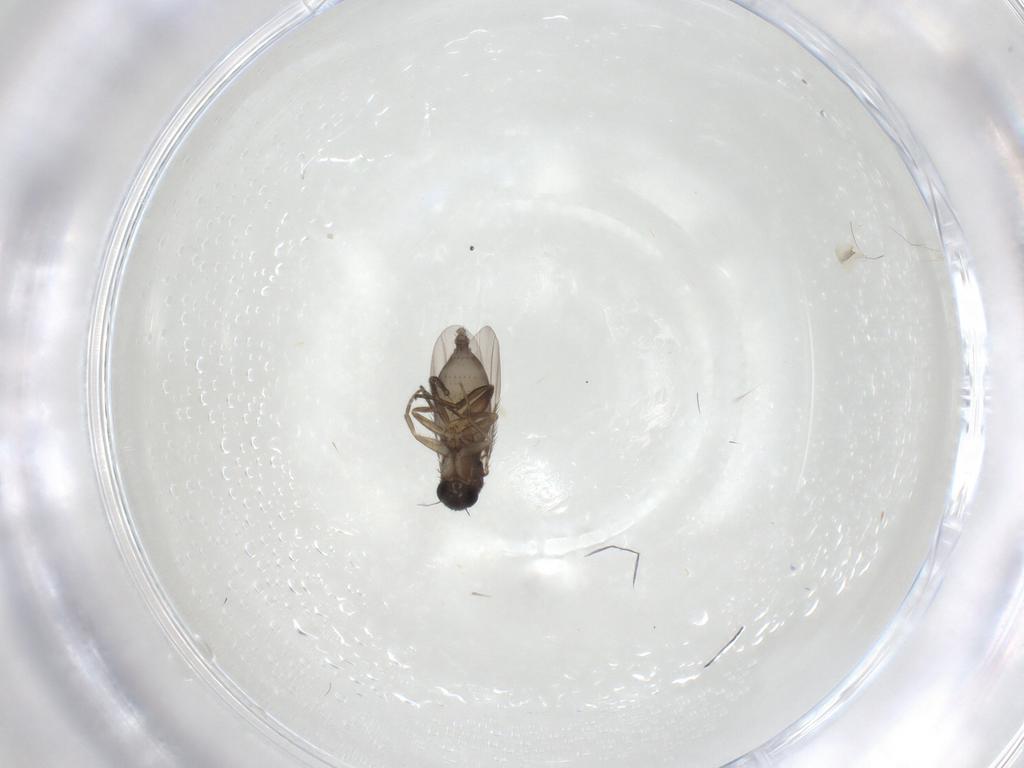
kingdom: Animalia
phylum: Arthropoda
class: Insecta
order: Diptera
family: Phoridae
